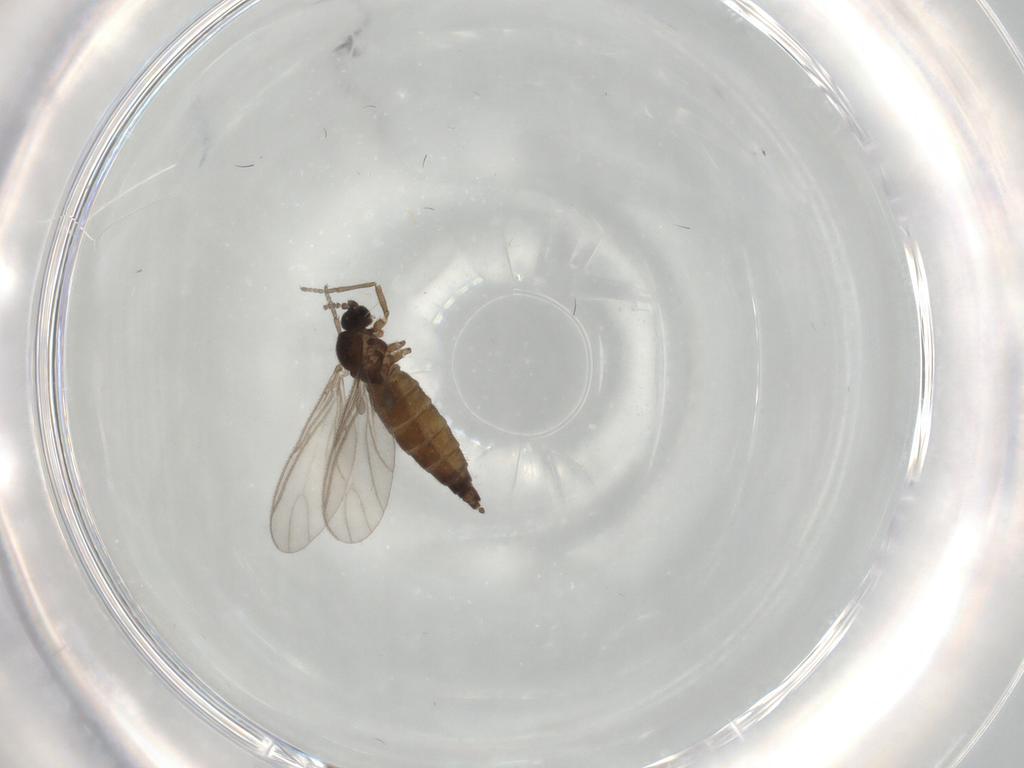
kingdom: Animalia
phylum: Arthropoda
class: Insecta
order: Diptera
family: Sciaridae
